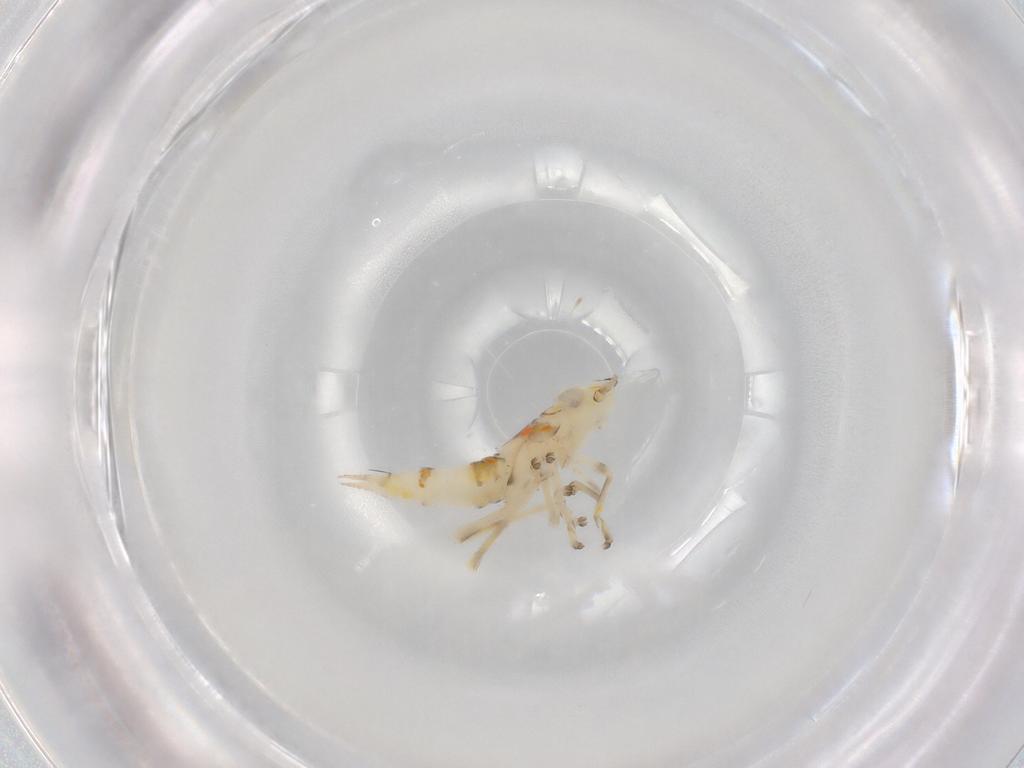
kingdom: Animalia
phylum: Arthropoda
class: Insecta
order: Hemiptera
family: Cicadellidae
